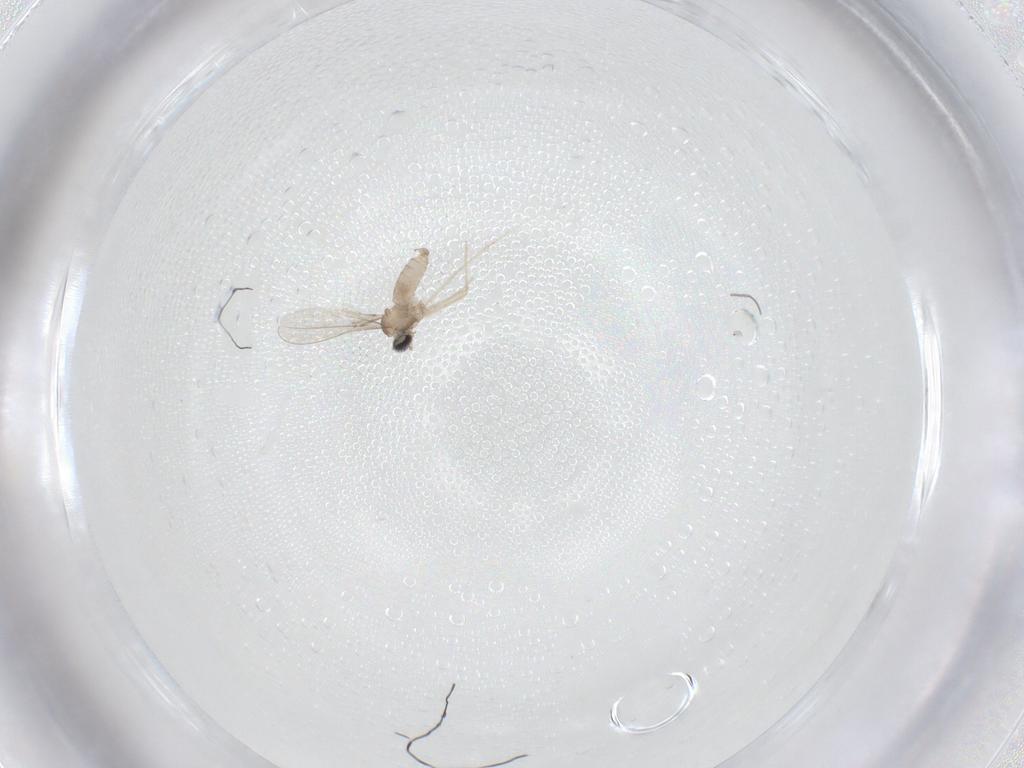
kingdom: Animalia
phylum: Arthropoda
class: Insecta
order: Diptera
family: Cecidomyiidae
